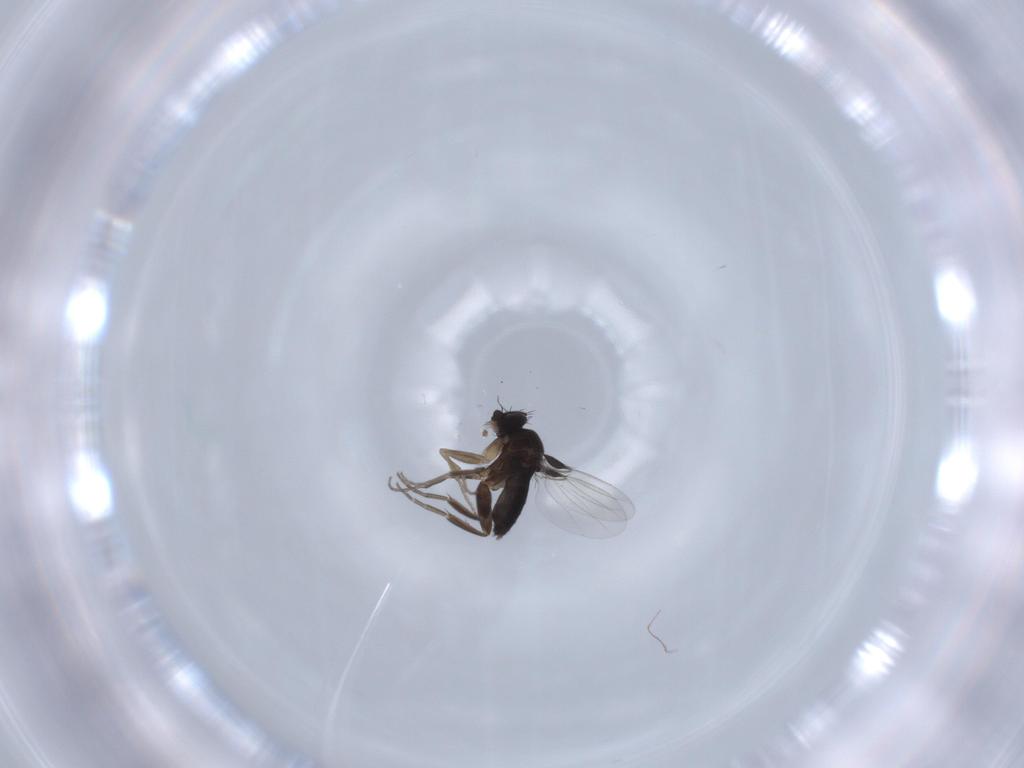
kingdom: Animalia
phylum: Arthropoda
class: Insecta
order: Diptera
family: Phoridae
